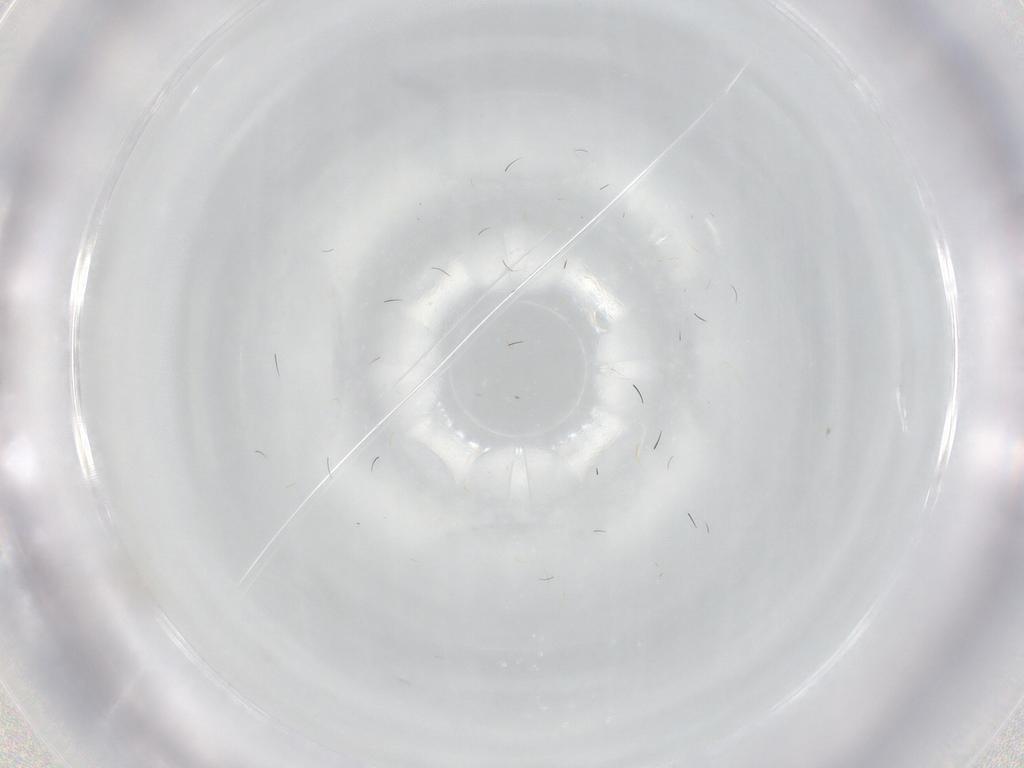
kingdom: Animalia
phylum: Arthropoda
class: Insecta
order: Hymenoptera
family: Mymaridae
